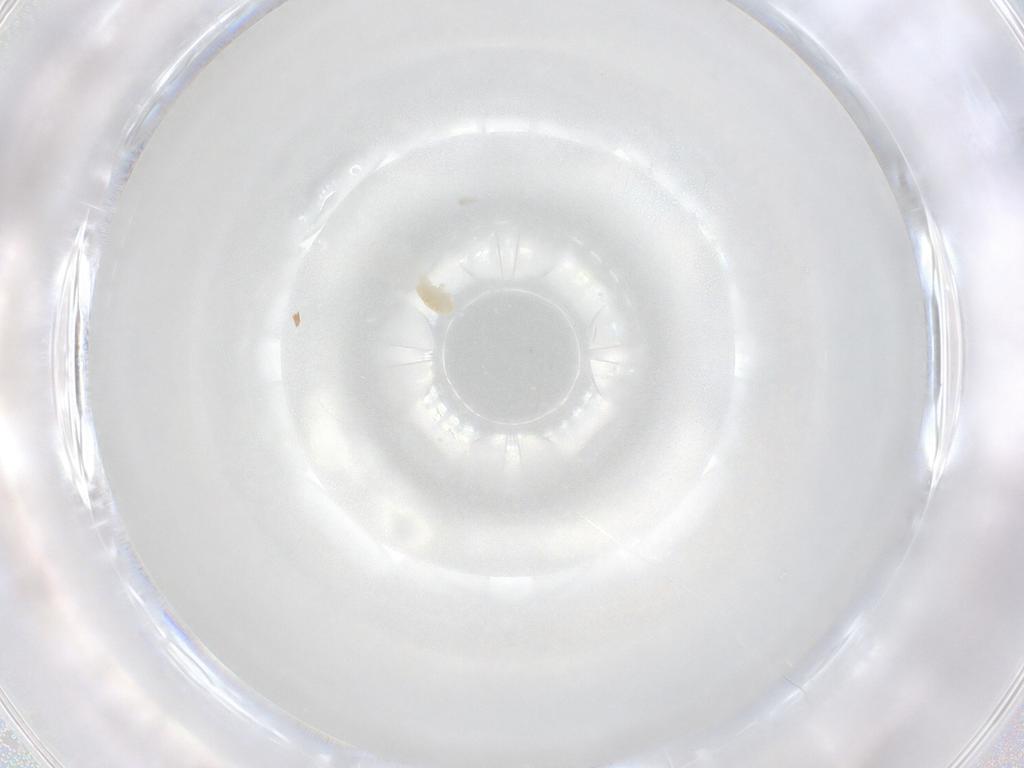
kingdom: Animalia
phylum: Arthropoda
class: Arachnida
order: Trombidiformes
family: Eupodidae
